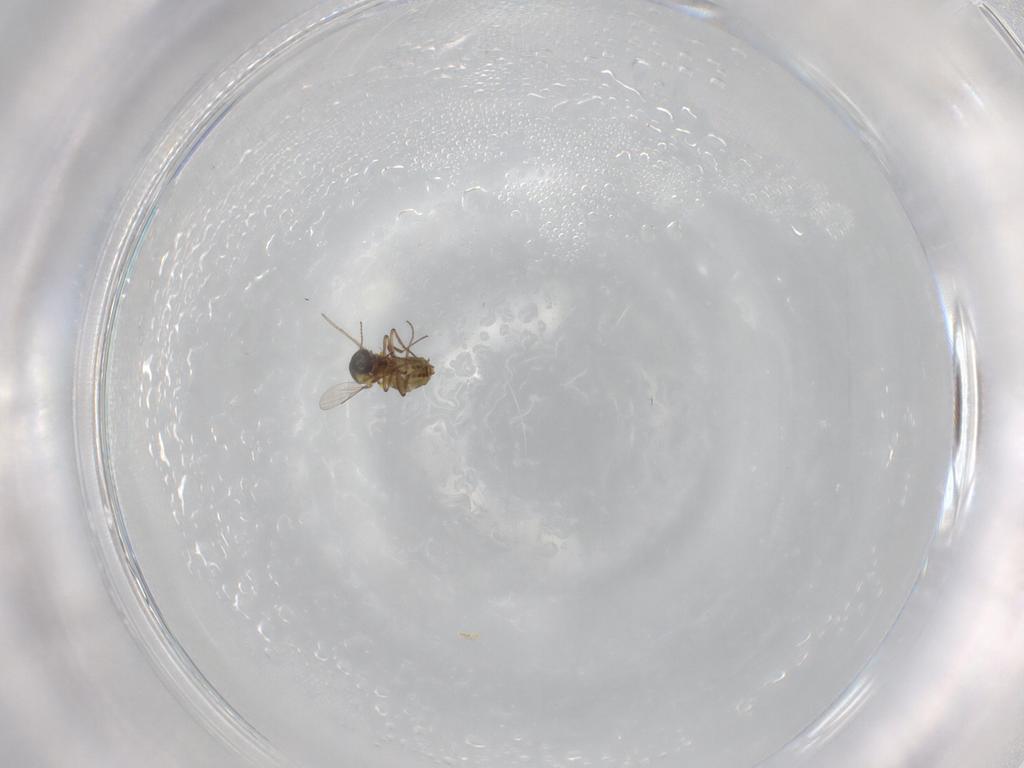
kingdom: Animalia
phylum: Arthropoda
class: Insecta
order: Diptera
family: Ceratopogonidae
